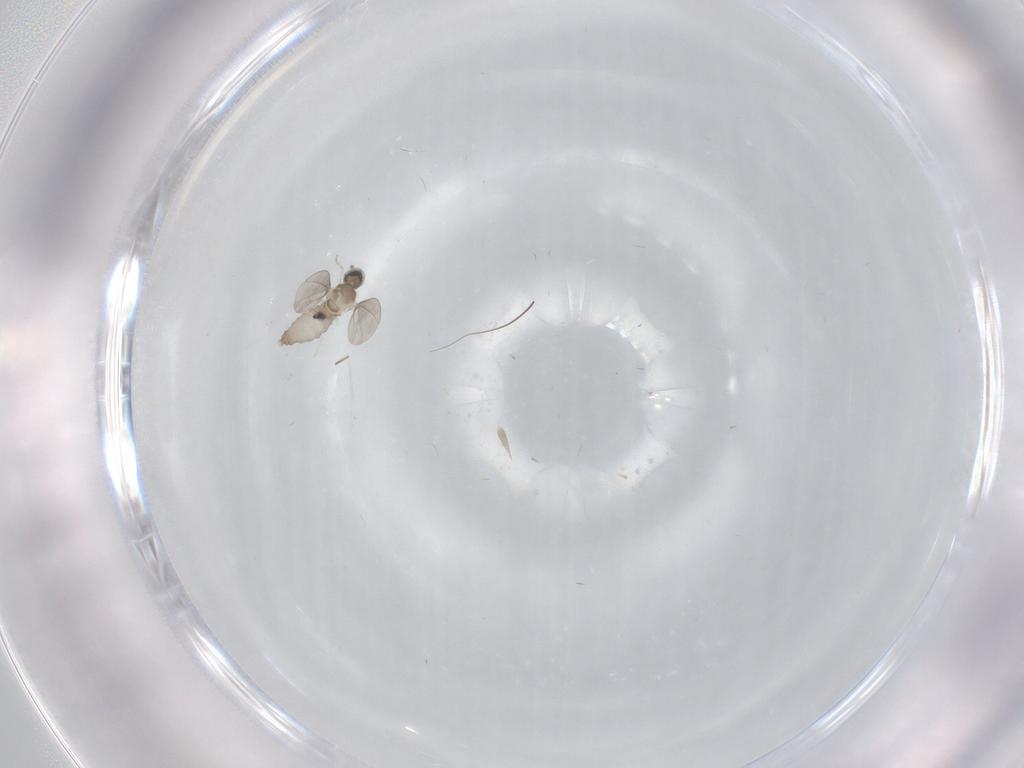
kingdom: Animalia
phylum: Arthropoda
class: Insecta
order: Diptera
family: Cecidomyiidae
